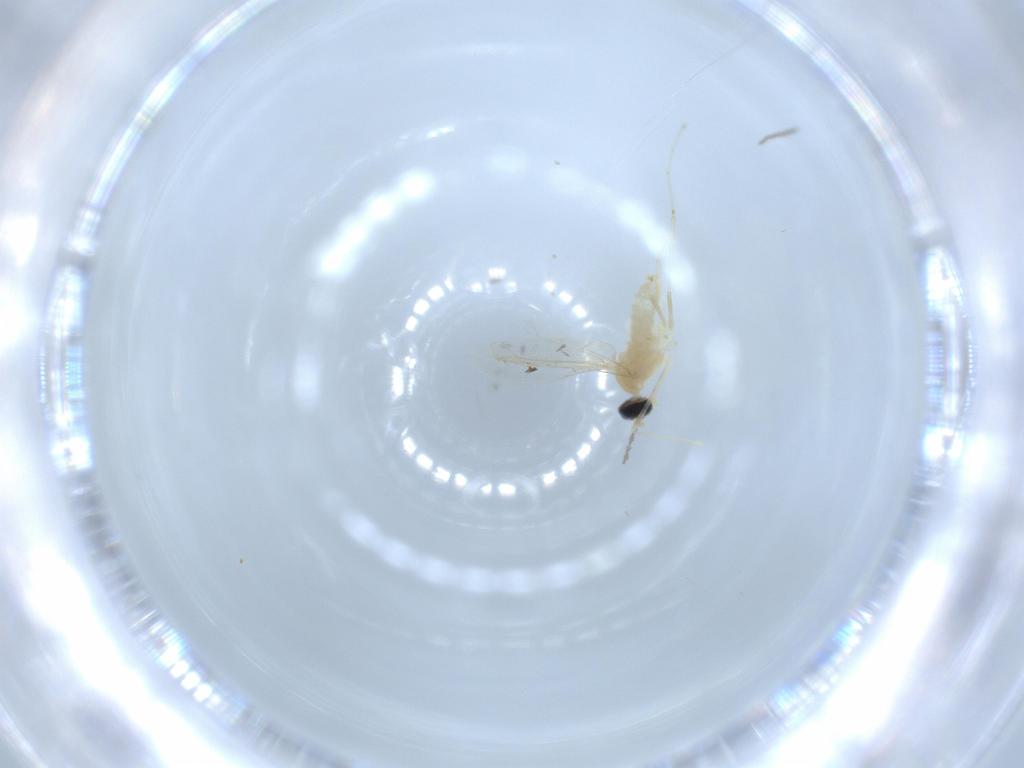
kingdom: Animalia
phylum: Arthropoda
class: Insecta
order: Diptera
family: Cecidomyiidae
